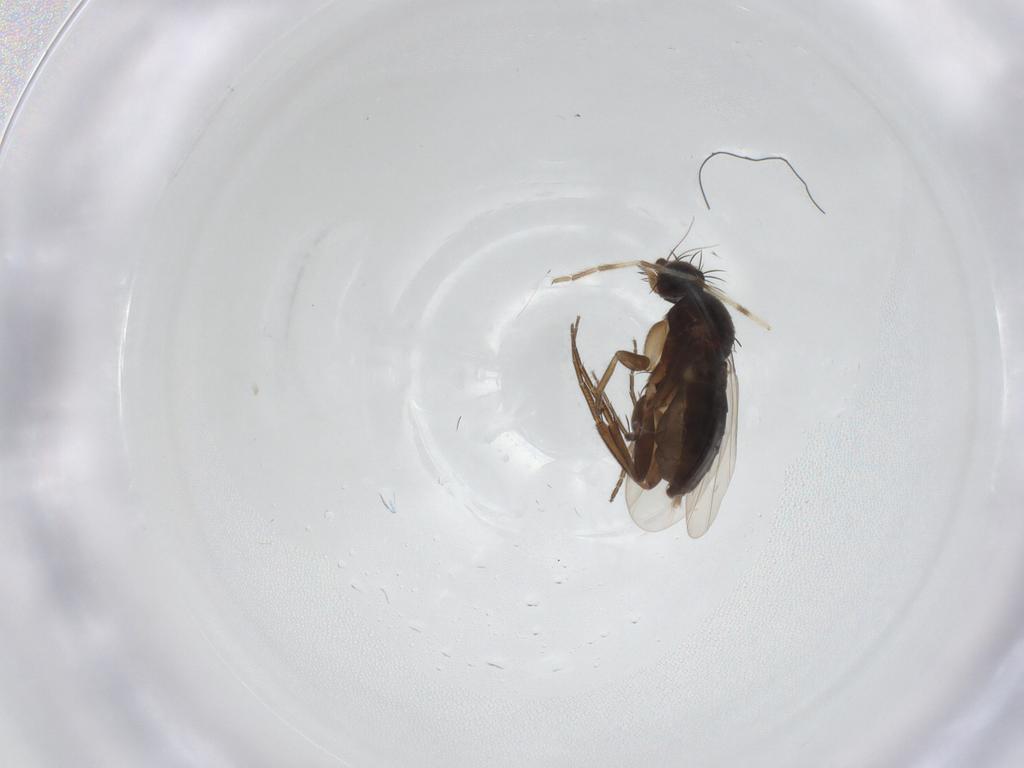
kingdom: Animalia
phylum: Arthropoda
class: Insecta
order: Diptera
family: Phoridae
